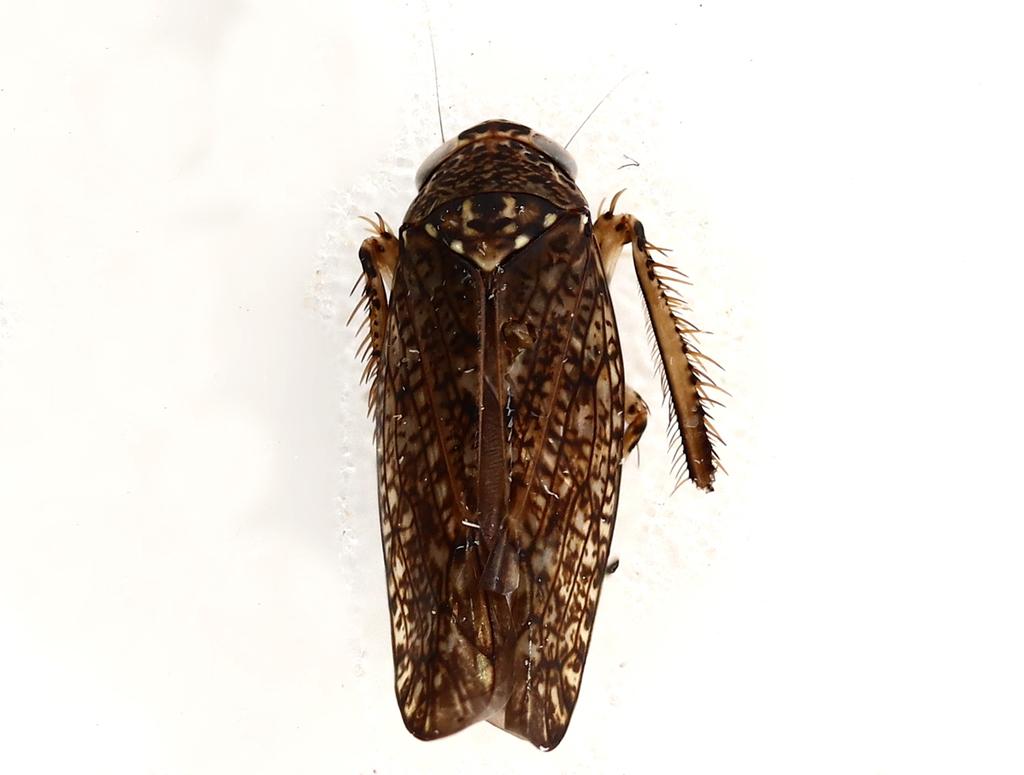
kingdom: Animalia
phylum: Arthropoda
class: Insecta
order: Diptera
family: Limoniidae
